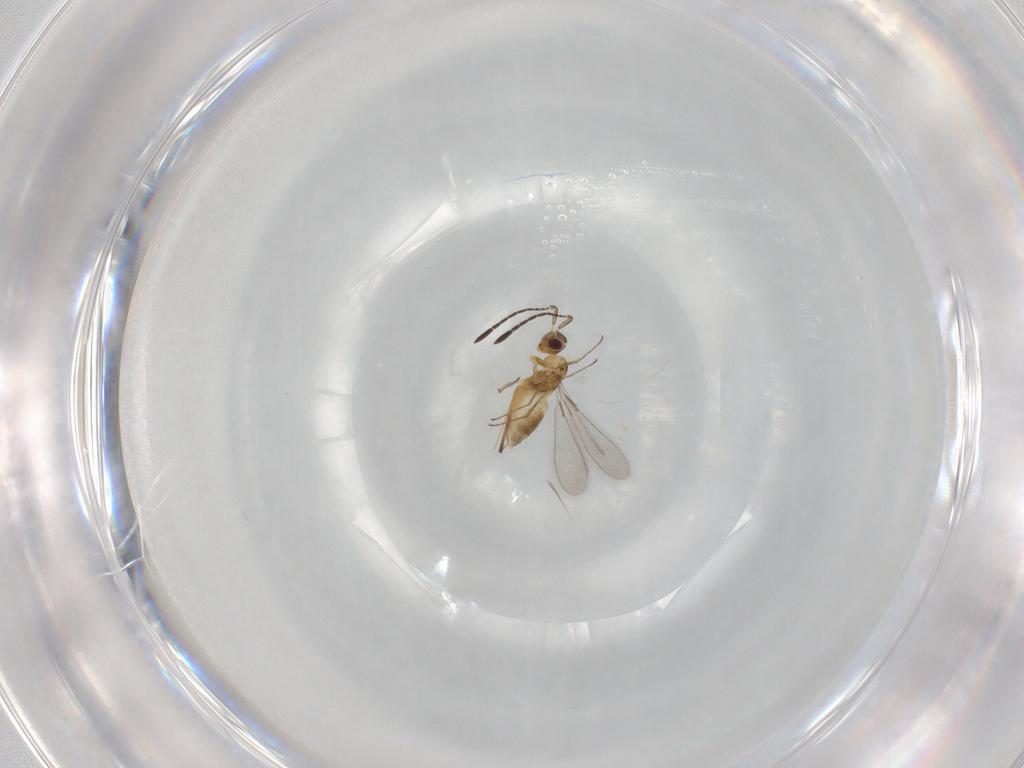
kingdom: Animalia
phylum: Arthropoda
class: Insecta
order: Hymenoptera
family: Mymaridae
